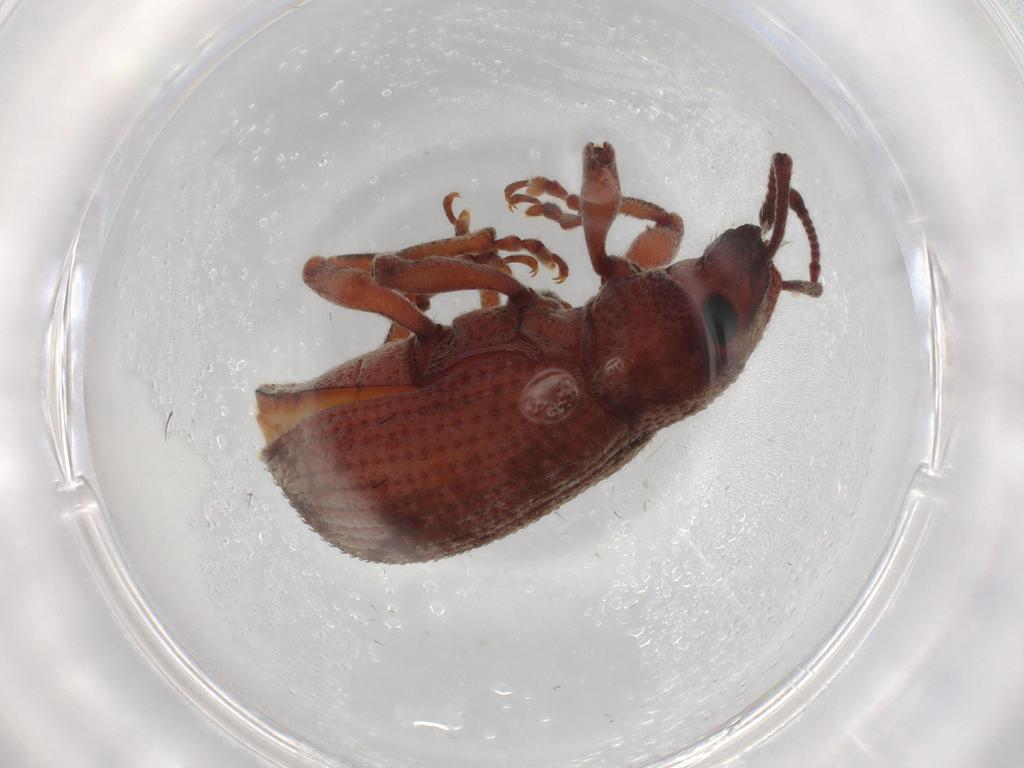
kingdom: Animalia
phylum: Arthropoda
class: Insecta
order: Coleoptera
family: Curculionidae
